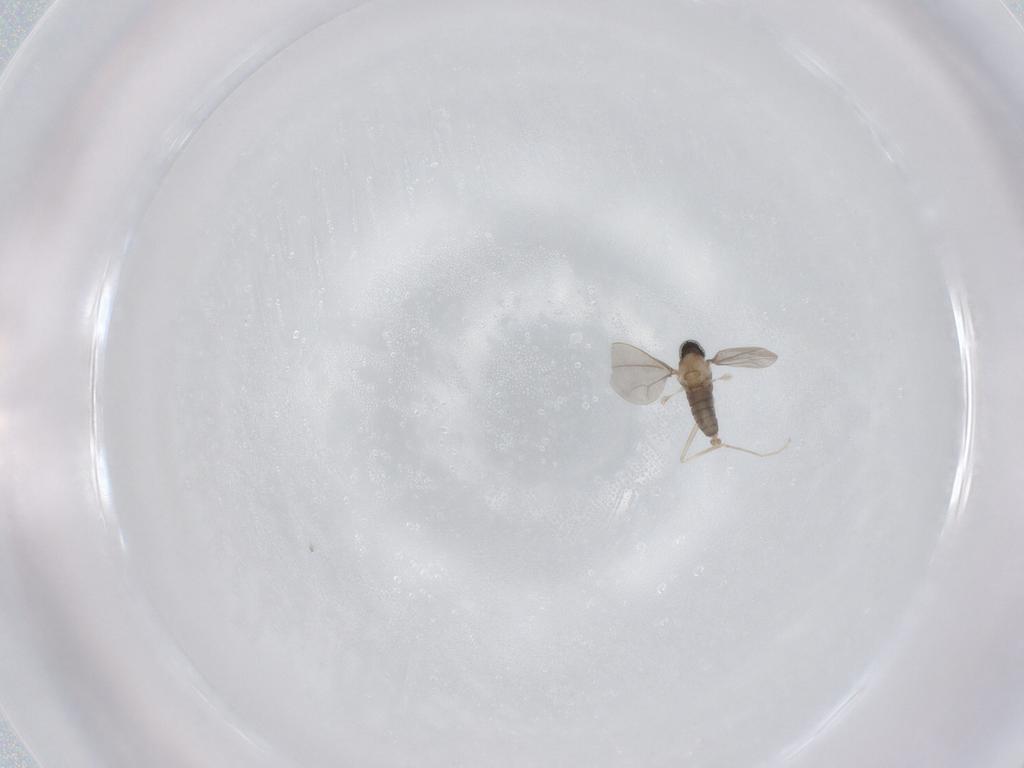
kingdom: Animalia
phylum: Arthropoda
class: Insecta
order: Diptera
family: Cecidomyiidae
